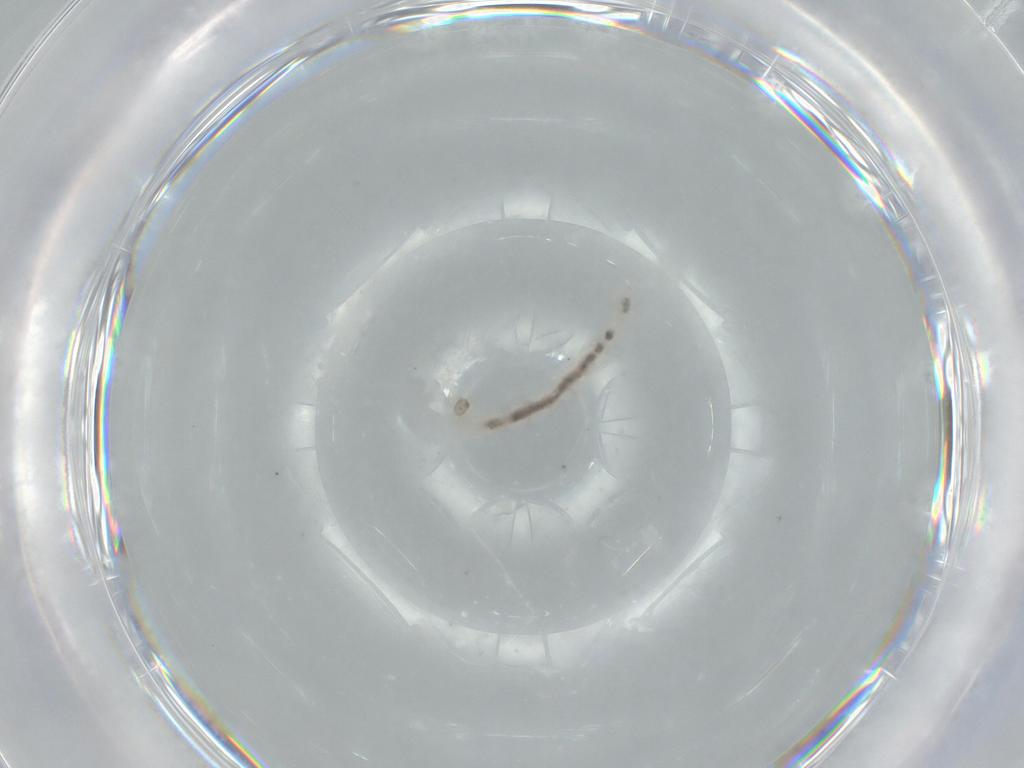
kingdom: Animalia
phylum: Arthropoda
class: Insecta
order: Diptera
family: Chironomidae
